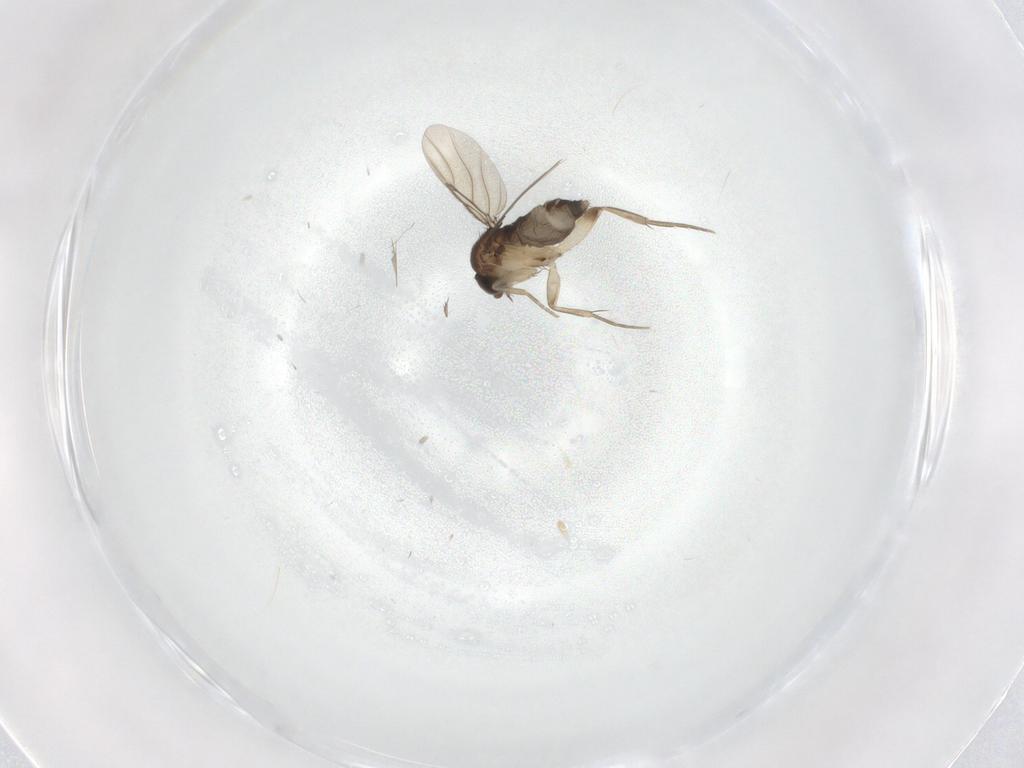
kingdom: Animalia
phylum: Arthropoda
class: Insecta
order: Diptera
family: Phoridae
